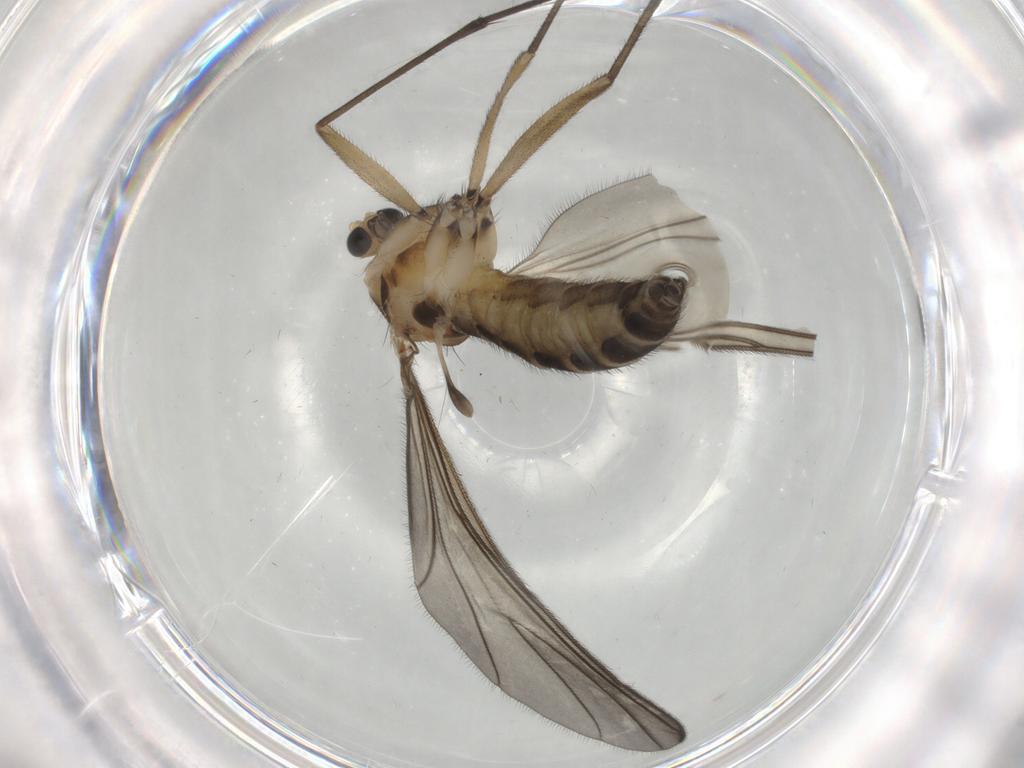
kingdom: Animalia
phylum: Arthropoda
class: Insecta
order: Diptera
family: Sciaridae
